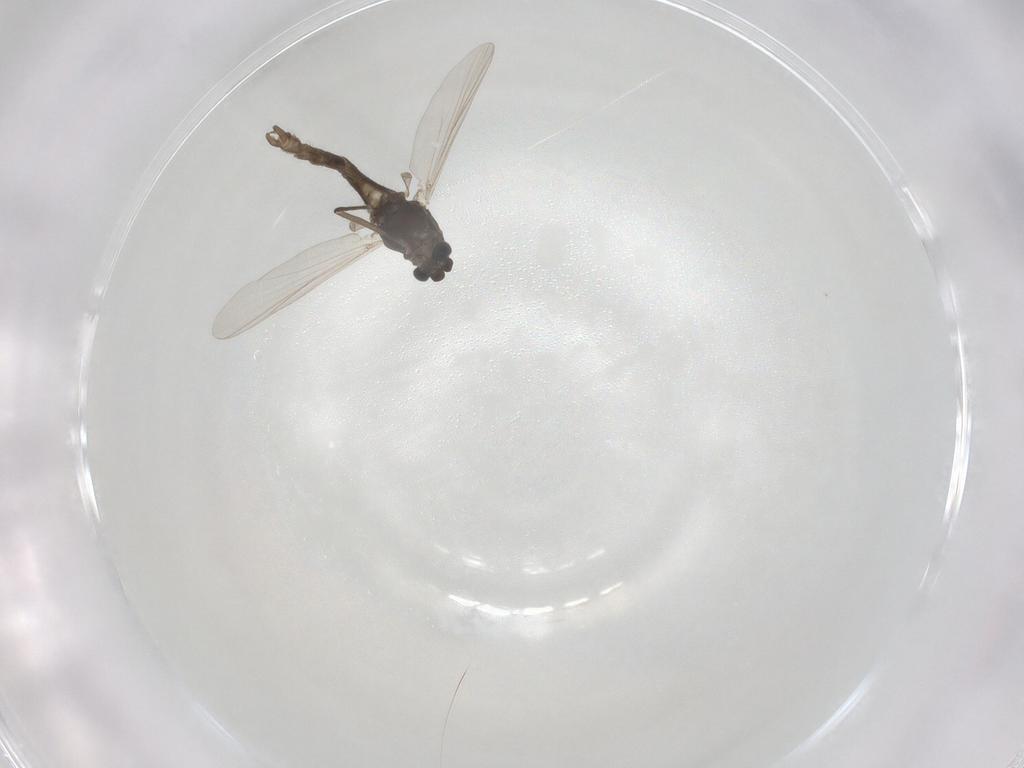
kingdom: Animalia
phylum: Arthropoda
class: Insecta
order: Diptera
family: Chironomidae
